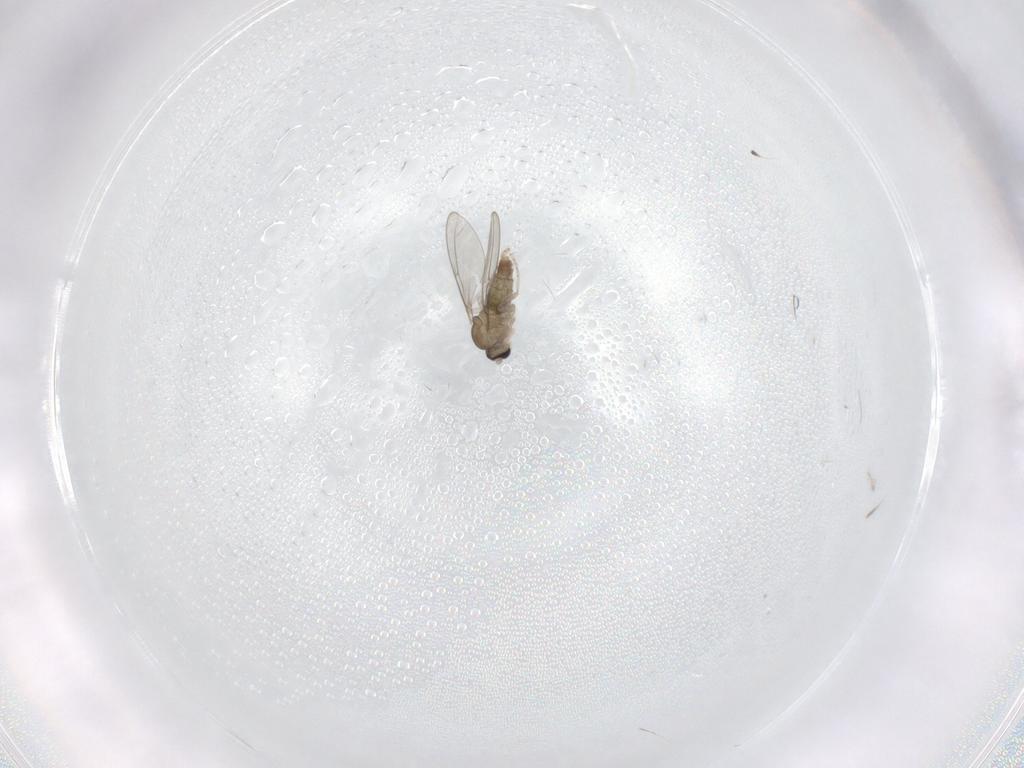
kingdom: Animalia
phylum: Arthropoda
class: Insecta
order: Diptera
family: Cecidomyiidae
